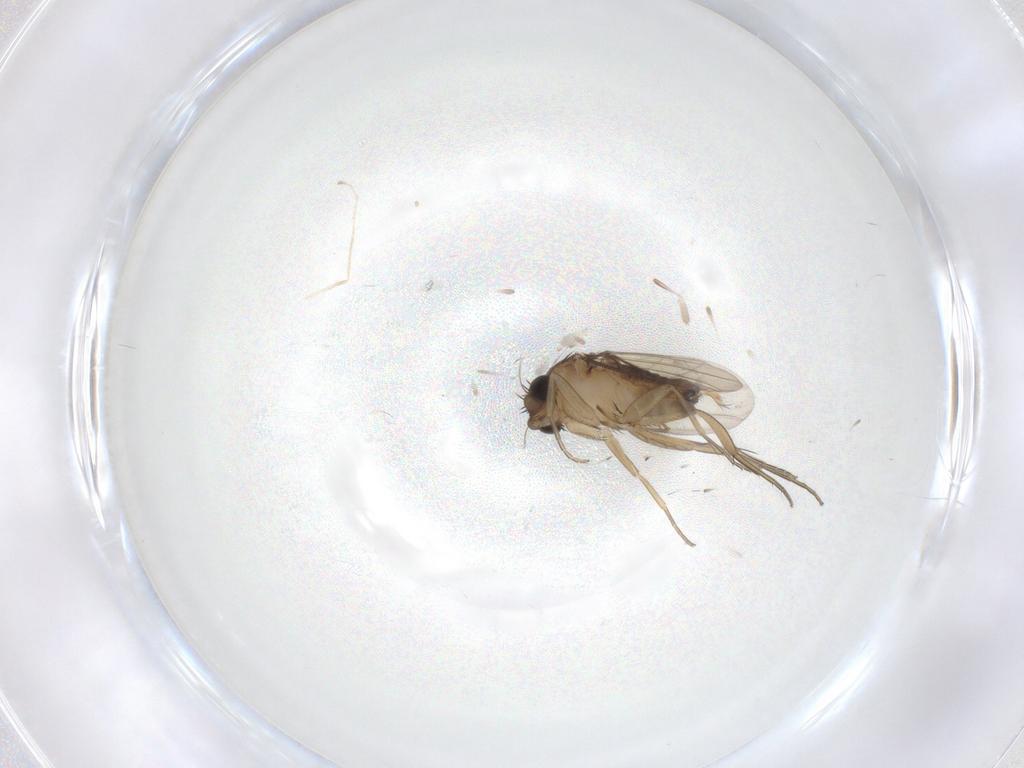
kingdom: Animalia
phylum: Arthropoda
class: Insecta
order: Diptera
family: Phoridae
